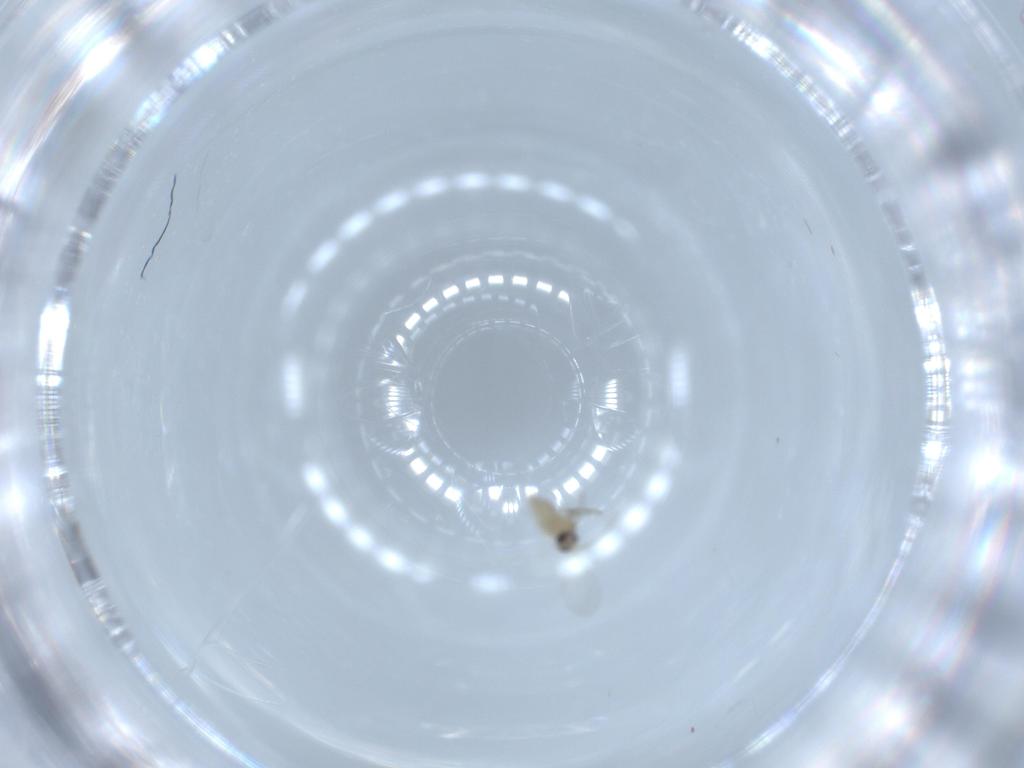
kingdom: Animalia
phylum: Arthropoda
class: Insecta
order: Diptera
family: Cecidomyiidae
